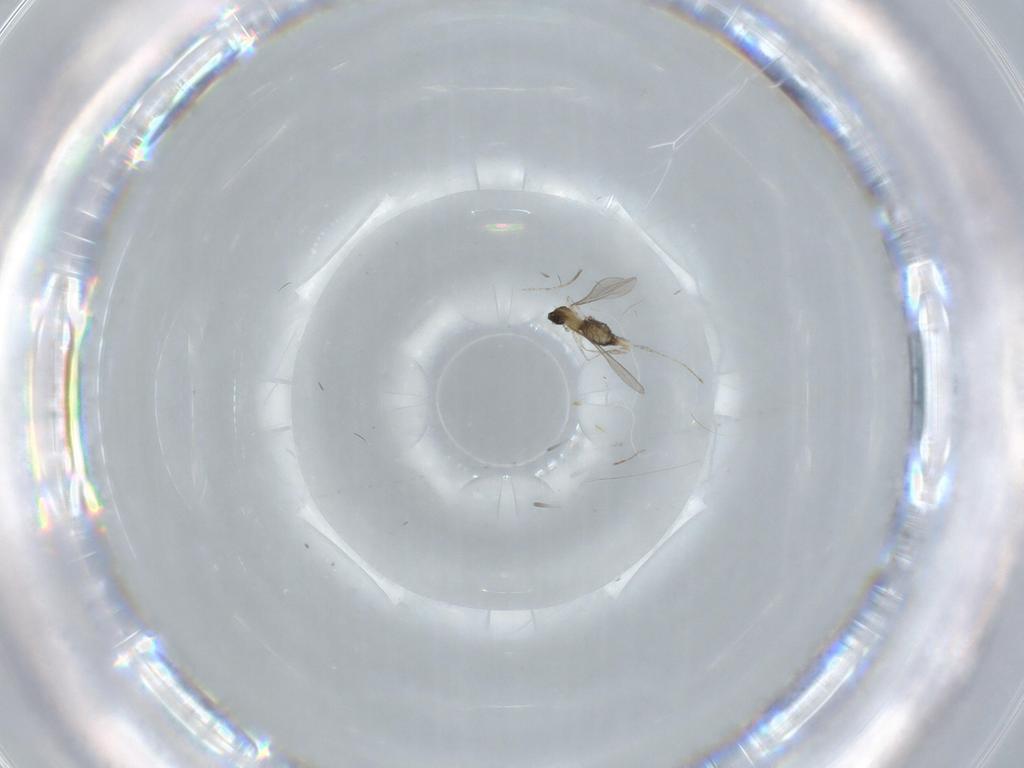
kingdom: Animalia
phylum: Arthropoda
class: Insecta
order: Diptera
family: Cecidomyiidae
